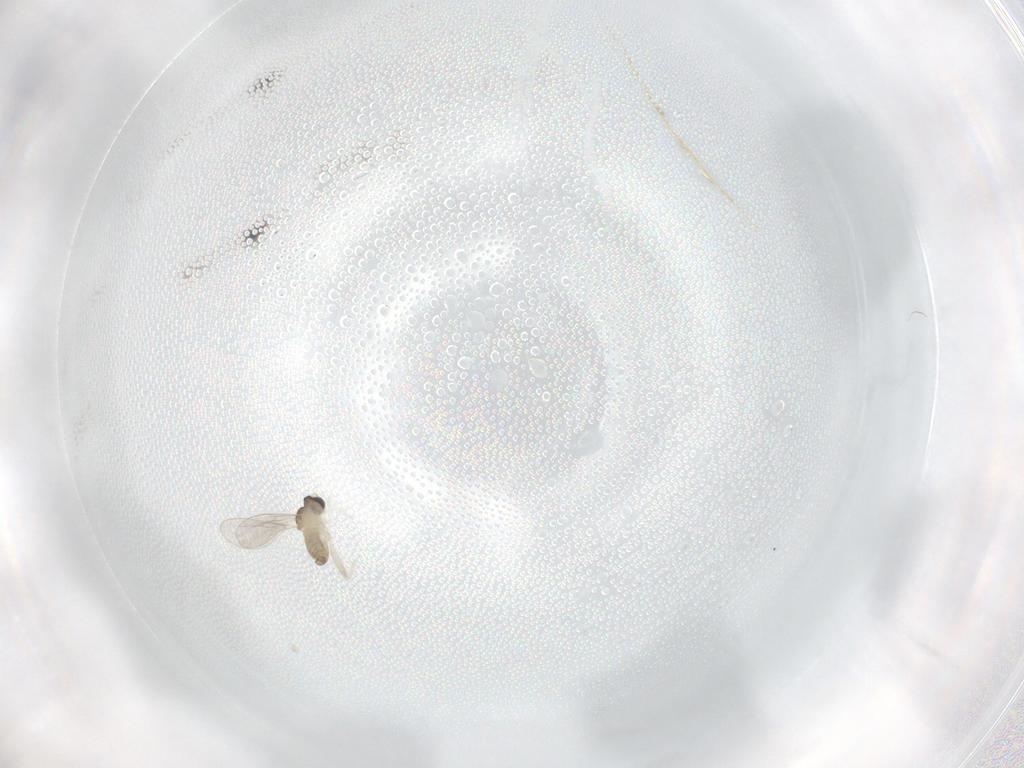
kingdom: Animalia
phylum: Arthropoda
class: Insecta
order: Diptera
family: Cecidomyiidae
